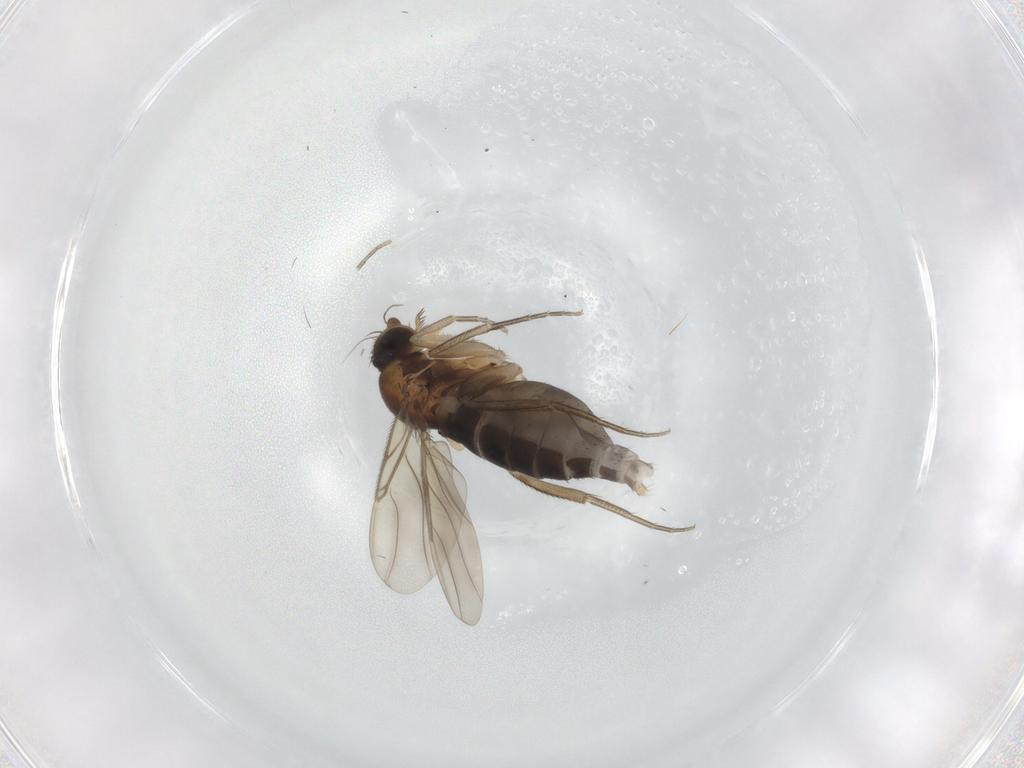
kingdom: Animalia
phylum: Arthropoda
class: Insecta
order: Diptera
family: Phoridae
